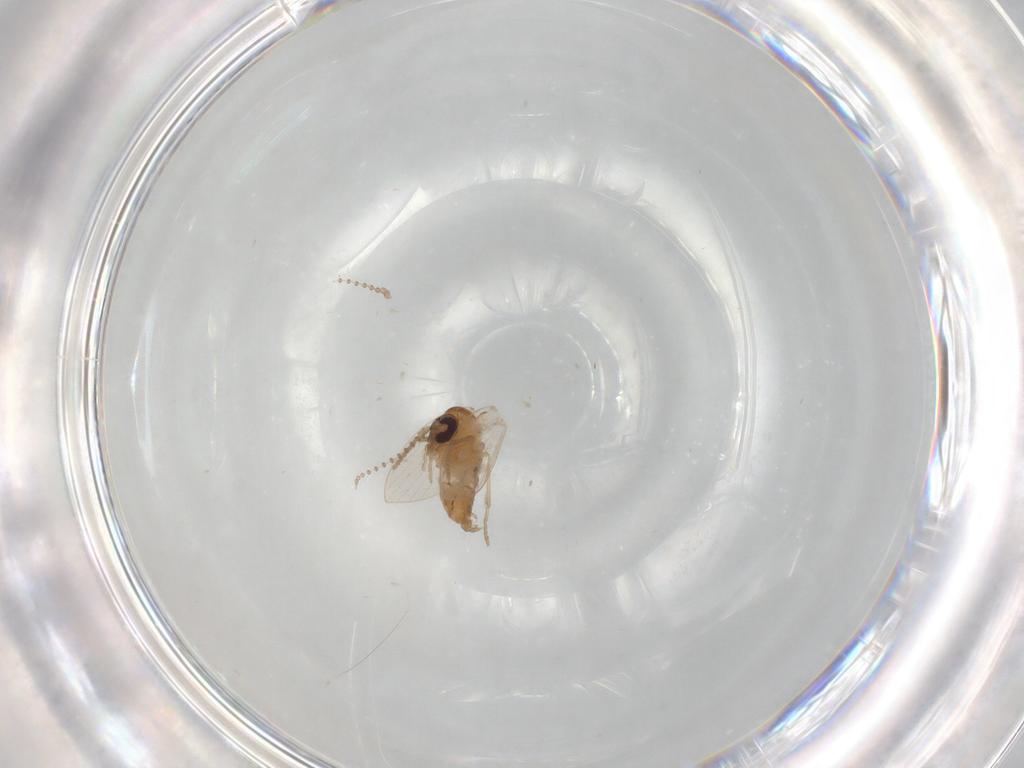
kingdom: Animalia
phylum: Arthropoda
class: Insecta
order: Diptera
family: Psychodidae
